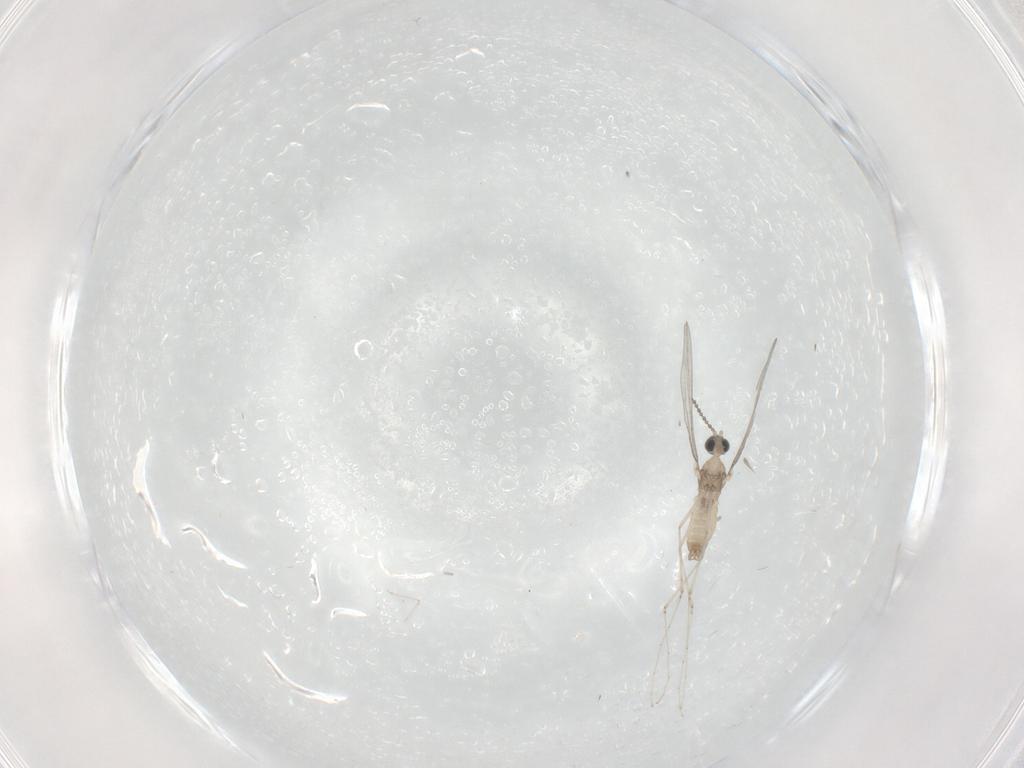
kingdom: Animalia
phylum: Arthropoda
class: Insecta
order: Diptera
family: Cecidomyiidae
